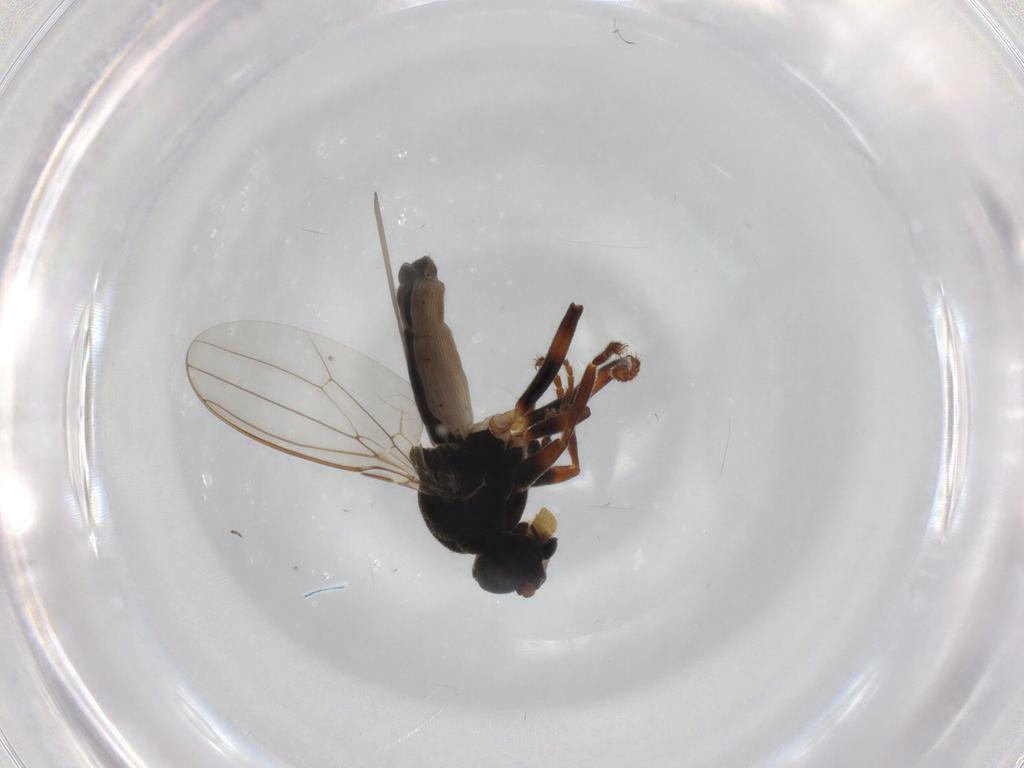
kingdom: Animalia
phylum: Arthropoda
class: Insecta
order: Diptera
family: Sphaeroceridae
